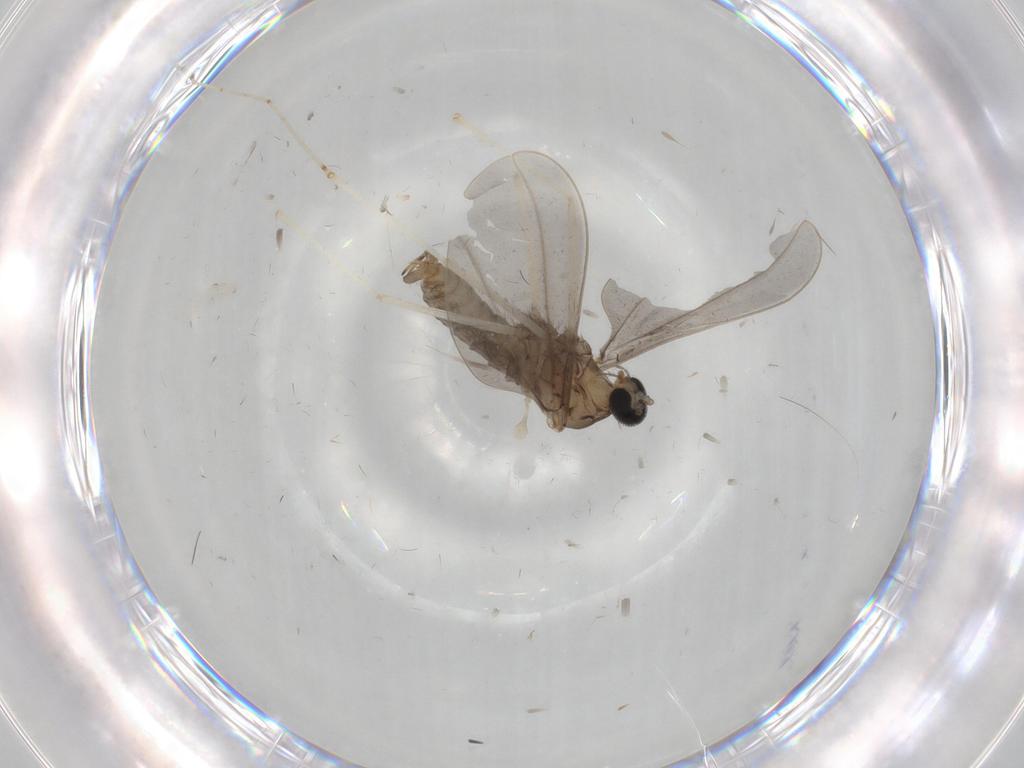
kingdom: Animalia
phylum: Arthropoda
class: Insecta
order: Diptera
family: Cecidomyiidae
